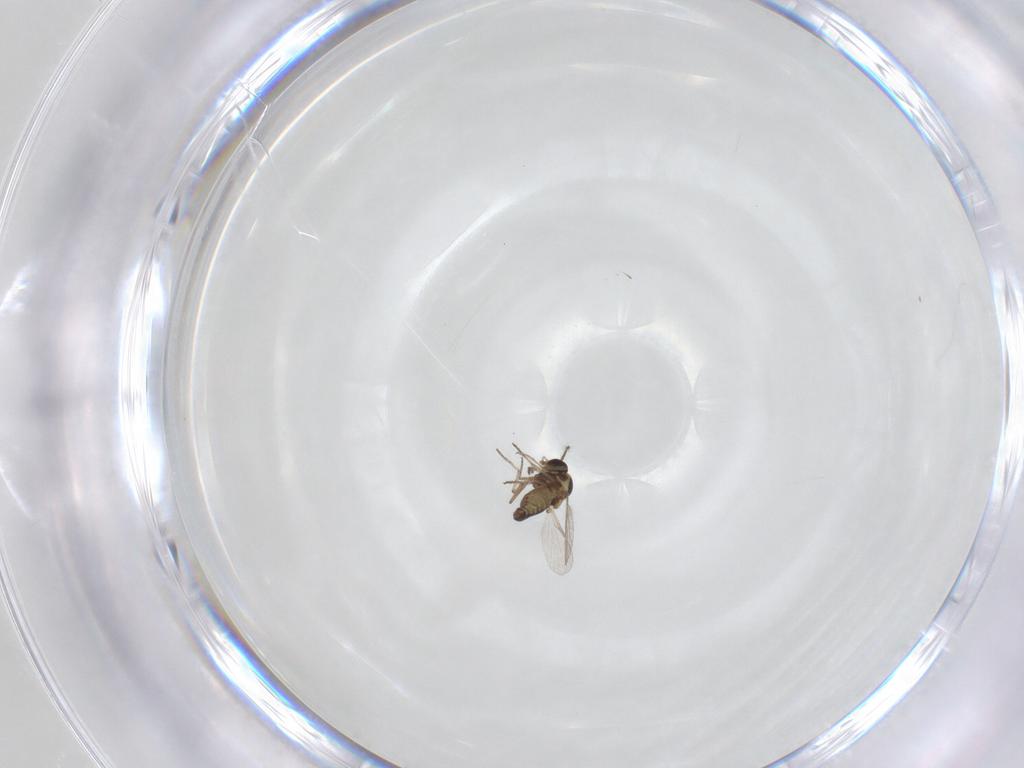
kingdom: Animalia
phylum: Arthropoda
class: Insecta
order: Diptera
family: Ceratopogonidae
